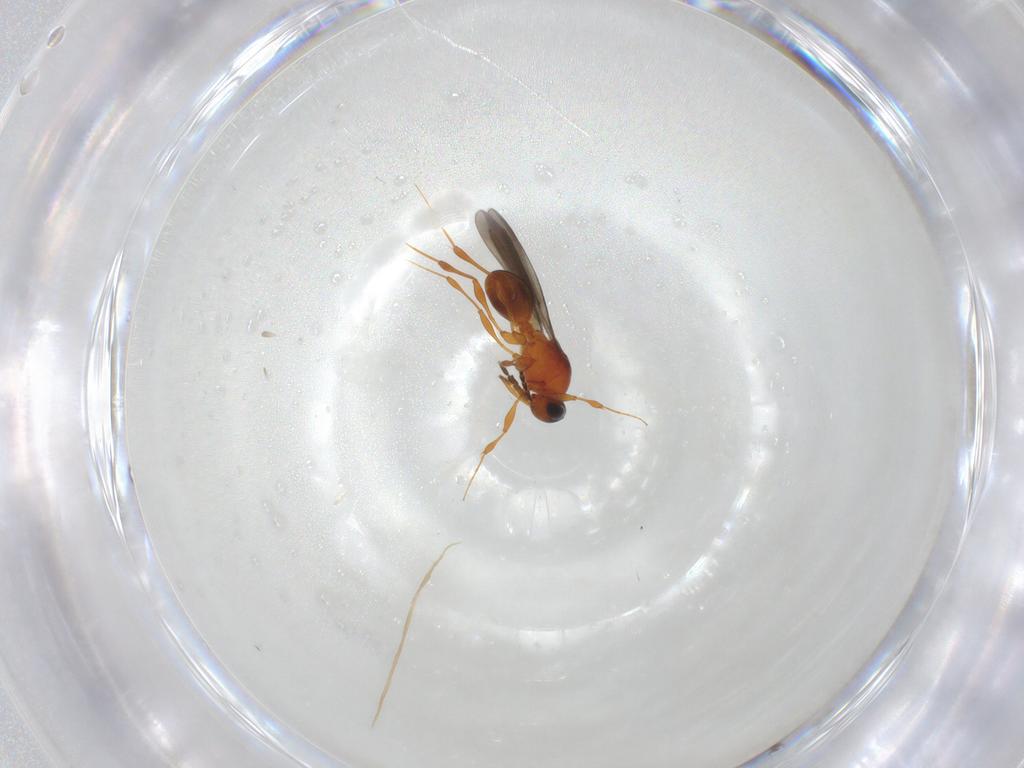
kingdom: Animalia
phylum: Arthropoda
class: Insecta
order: Hymenoptera
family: Platygastridae
